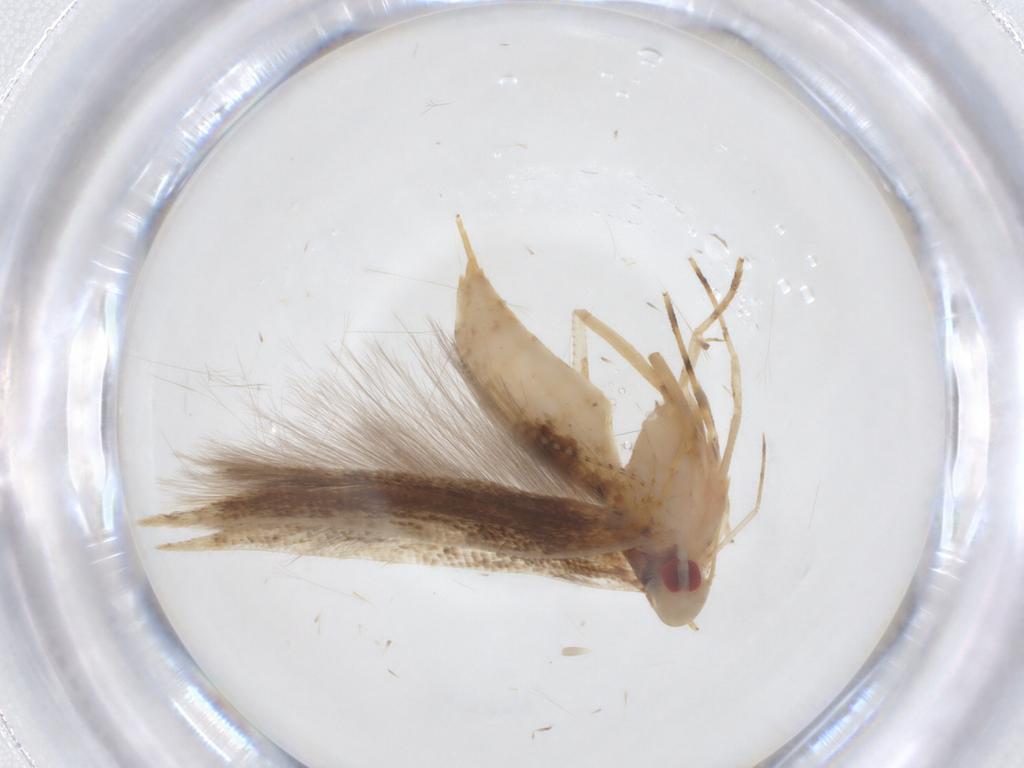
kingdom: Animalia
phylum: Arthropoda
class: Insecta
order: Lepidoptera
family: Cosmopterigidae
